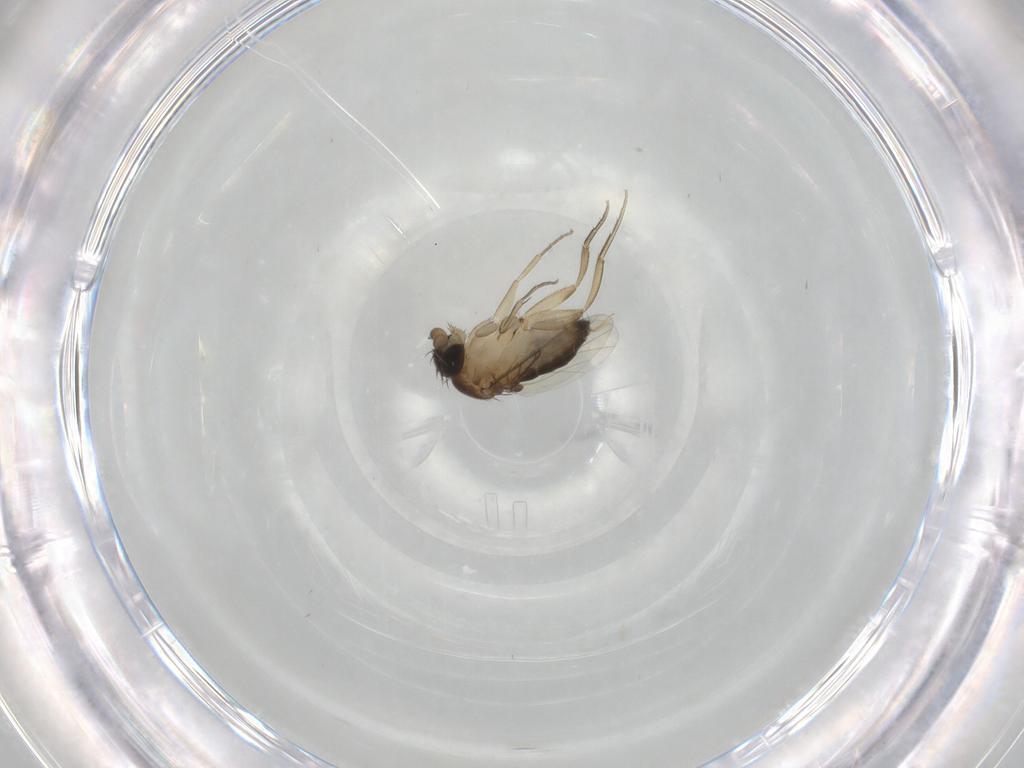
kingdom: Animalia
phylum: Arthropoda
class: Insecta
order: Diptera
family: Phoridae
